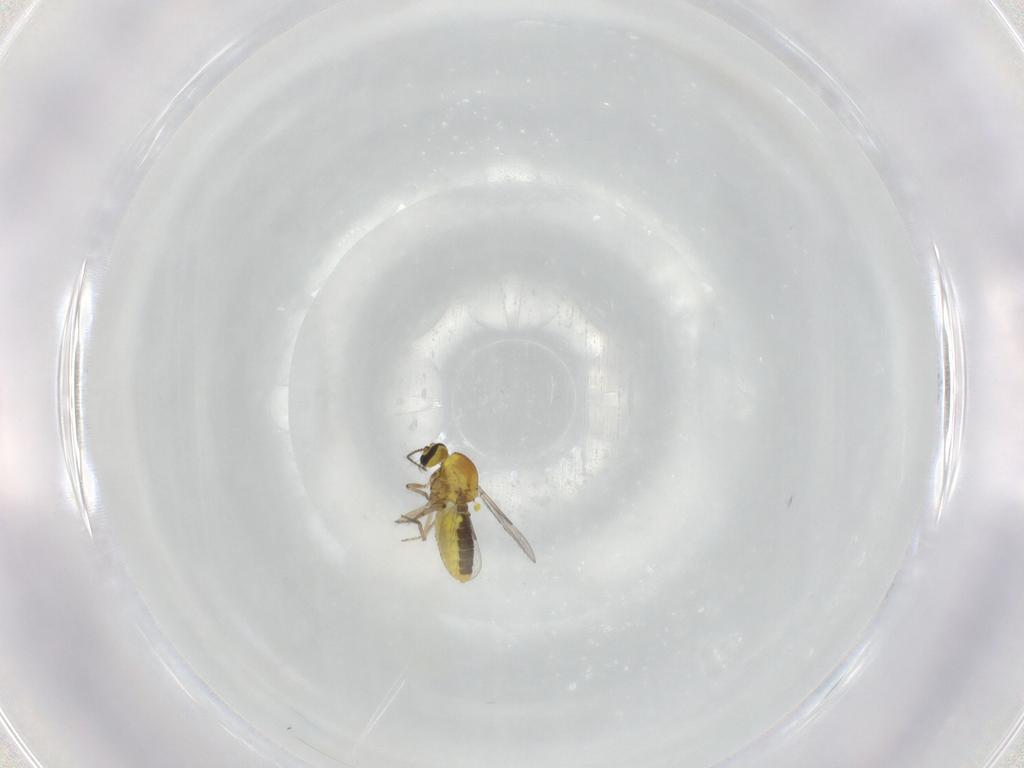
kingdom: Animalia
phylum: Arthropoda
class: Insecta
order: Diptera
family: Ceratopogonidae
